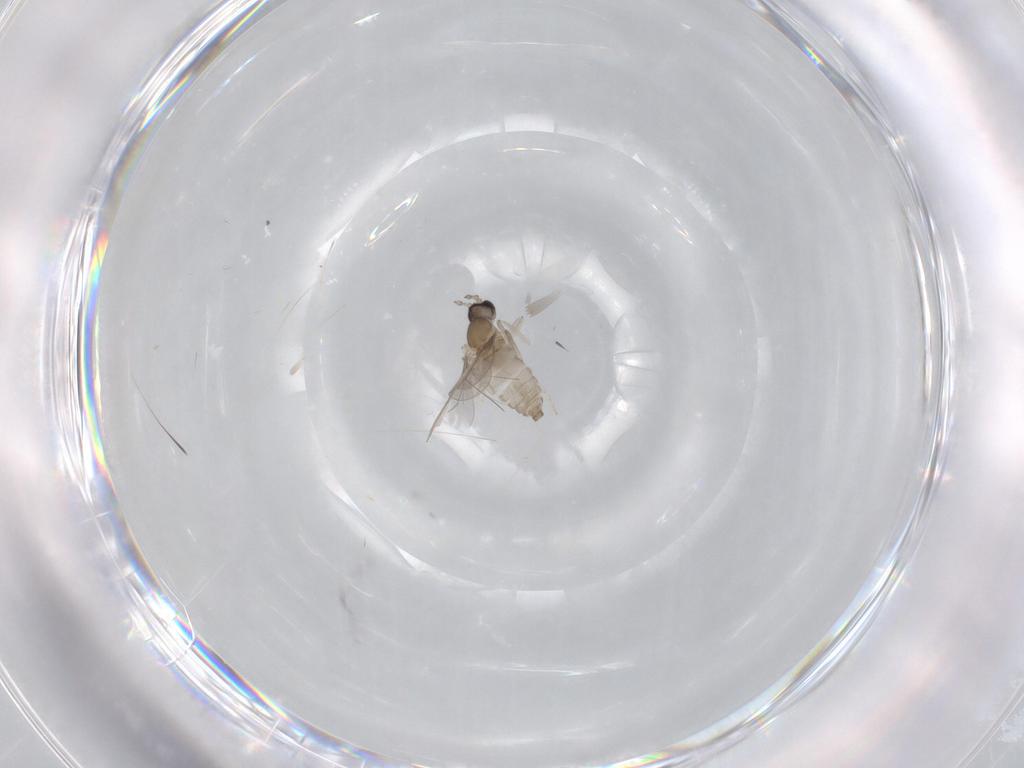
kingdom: Animalia
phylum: Arthropoda
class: Insecta
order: Diptera
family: Cecidomyiidae
